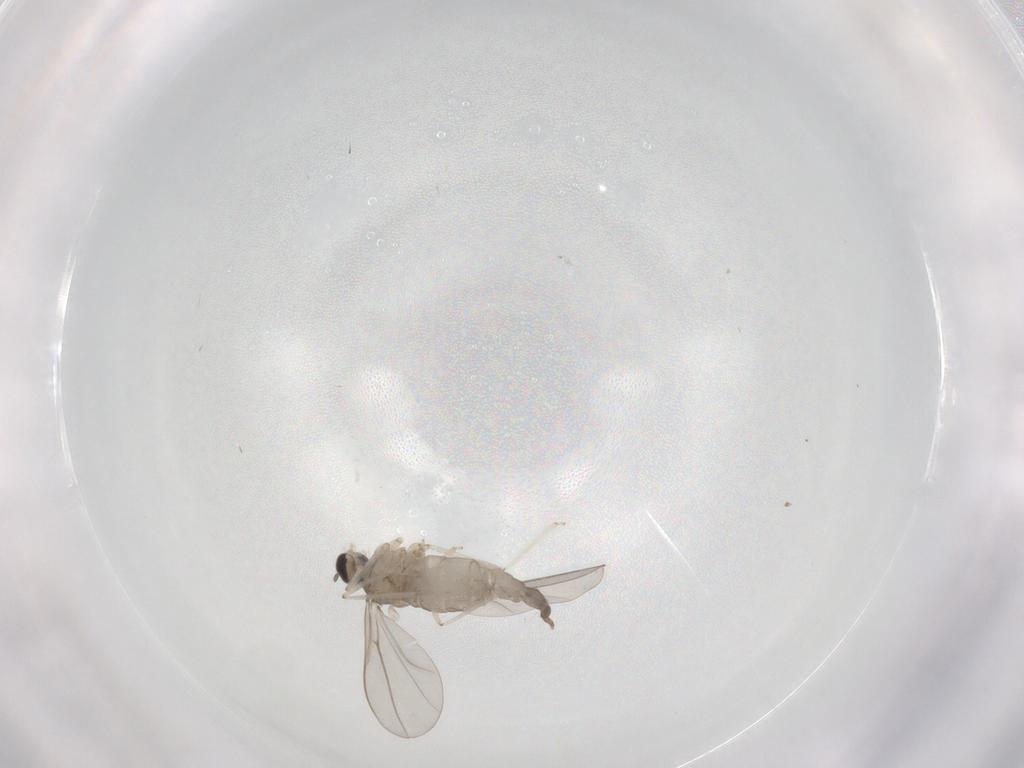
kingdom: Animalia
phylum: Arthropoda
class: Insecta
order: Diptera
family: Cecidomyiidae
